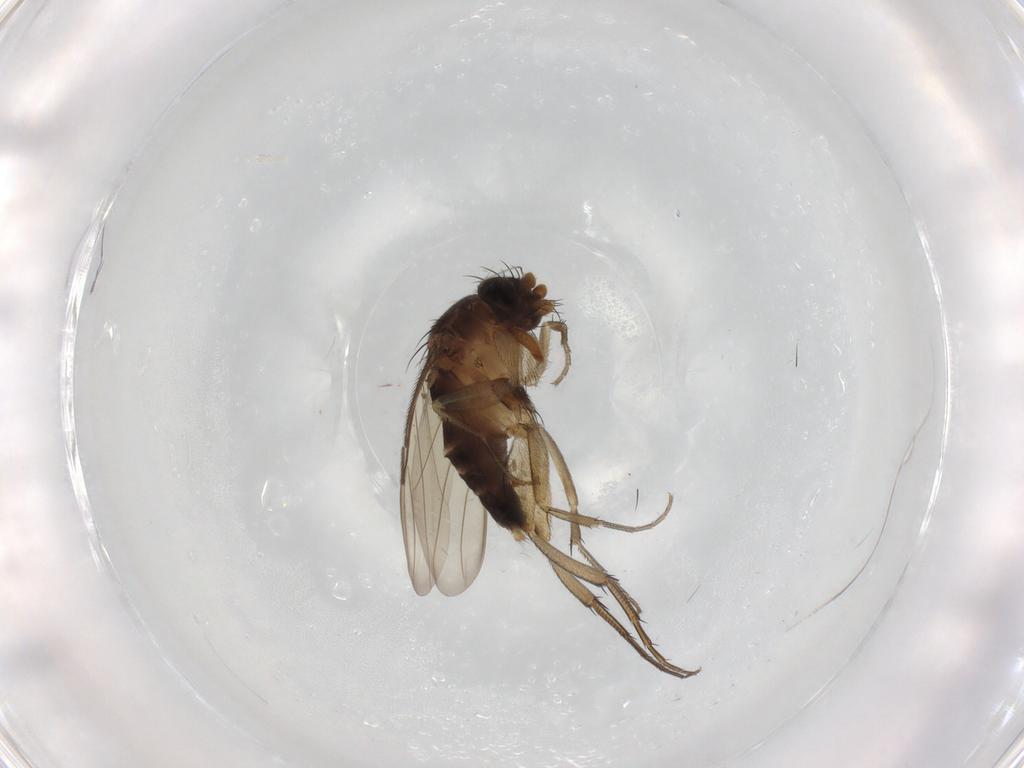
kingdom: Animalia
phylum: Arthropoda
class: Insecta
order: Diptera
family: Phoridae
